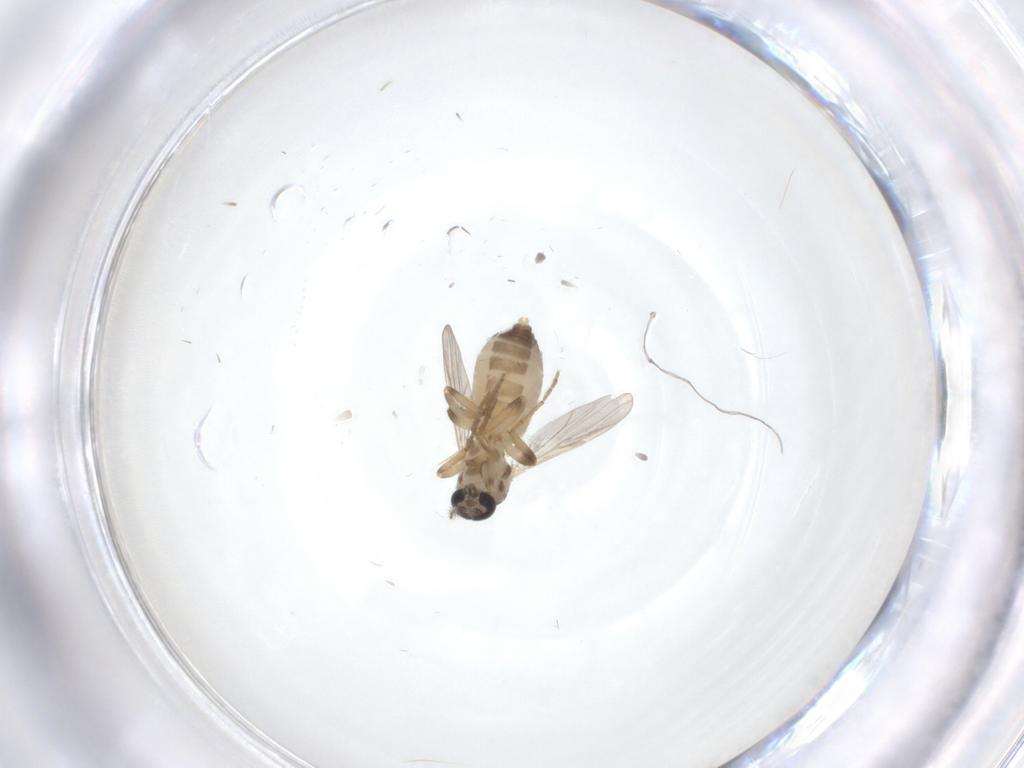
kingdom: Animalia
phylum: Arthropoda
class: Insecta
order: Diptera
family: Ceratopogonidae
